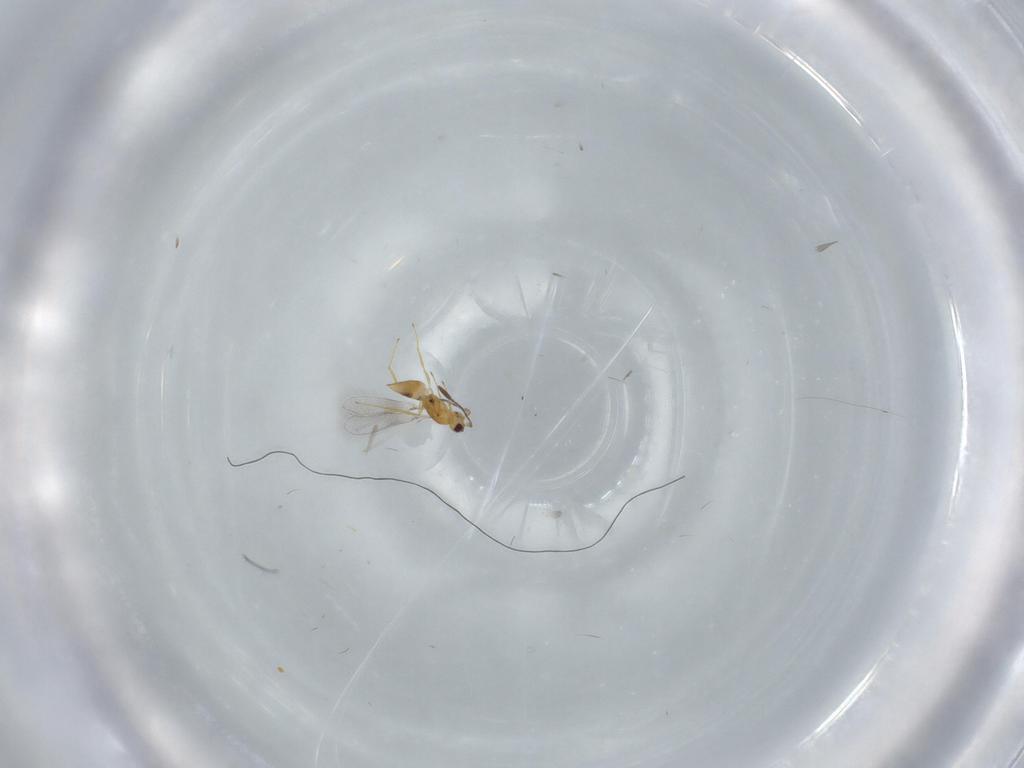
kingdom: Animalia
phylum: Arthropoda
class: Insecta
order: Hymenoptera
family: Mymaridae
